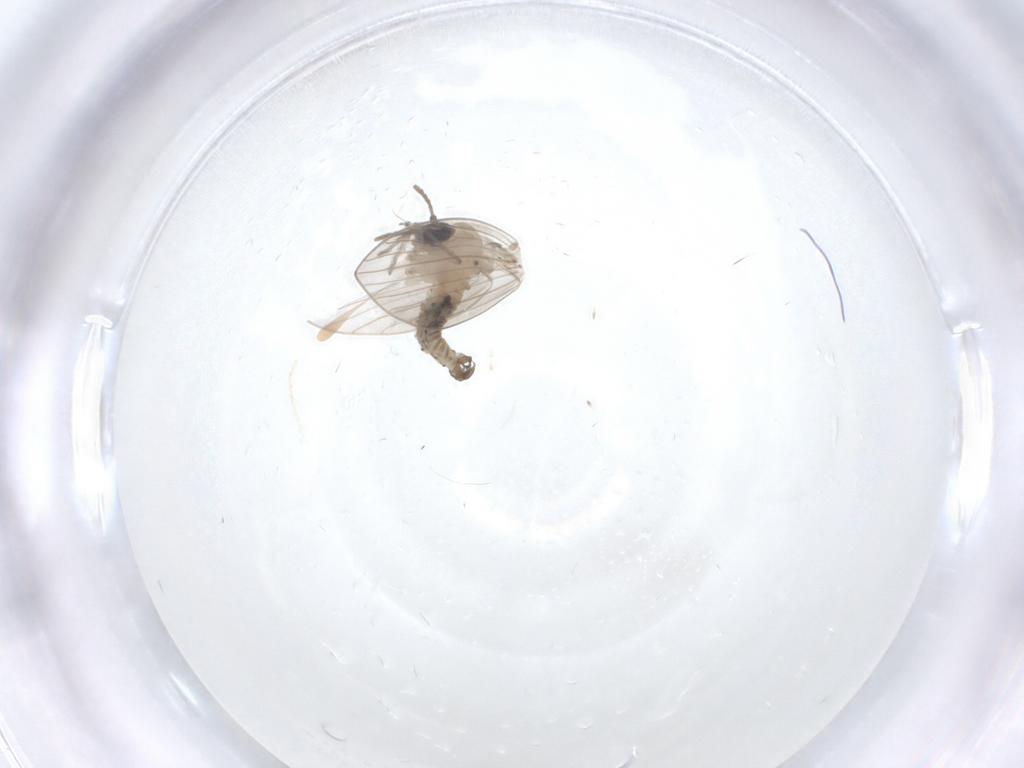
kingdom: Animalia
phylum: Arthropoda
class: Insecta
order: Diptera
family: Psychodidae
